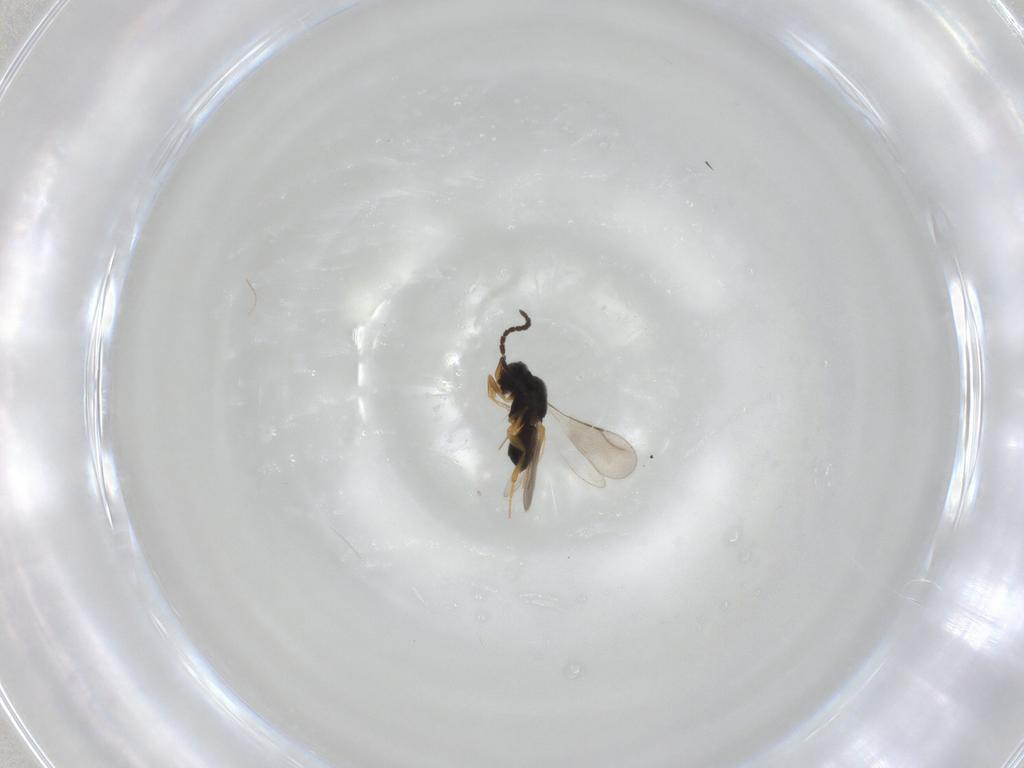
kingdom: Animalia
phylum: Arthropoda
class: Insecta
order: Hymenoptera
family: Ceraphronidae
